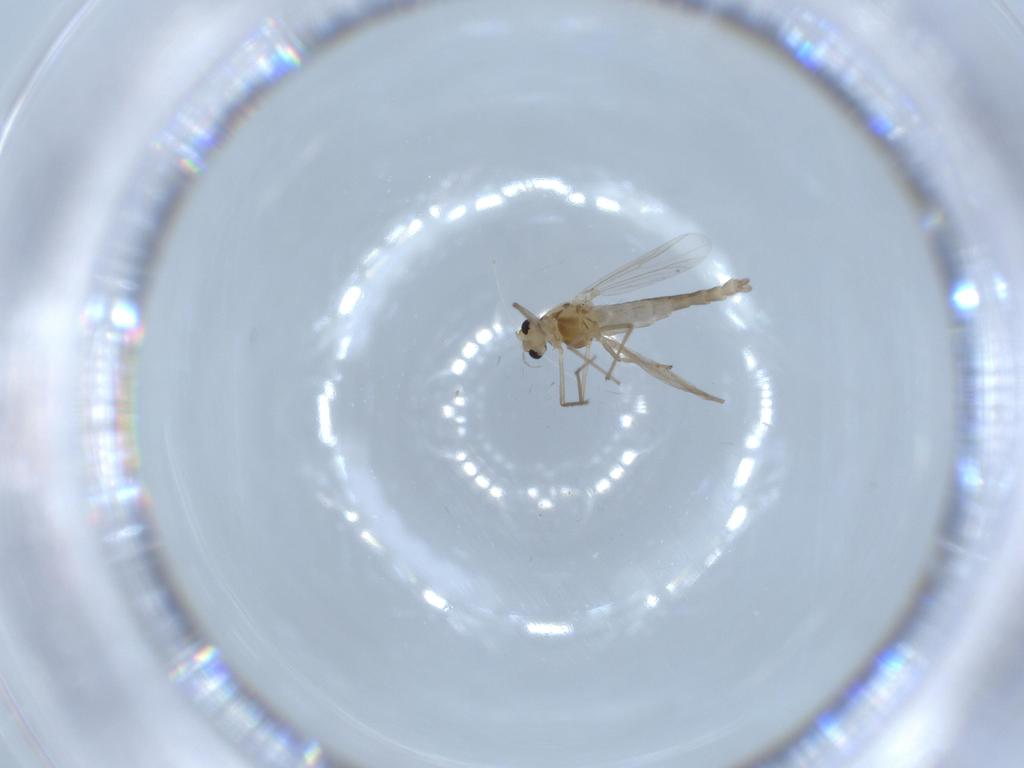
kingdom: Animalia
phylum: Arthropoda
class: Insecta
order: Diptera
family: Chironomidae
